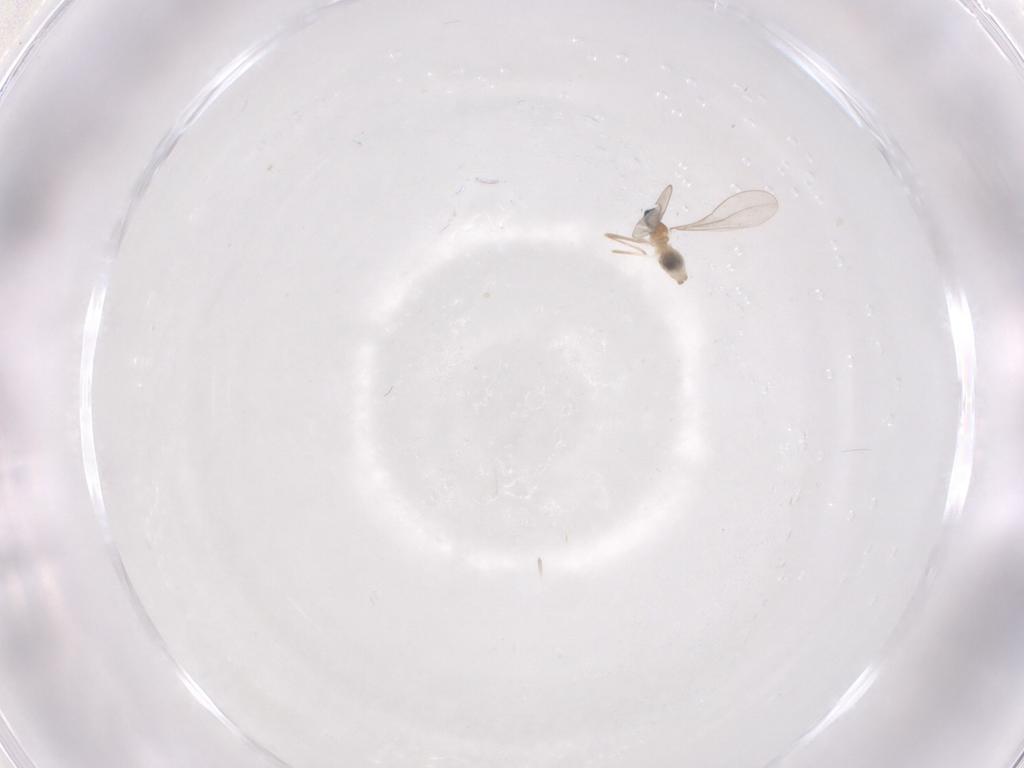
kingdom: Animalia
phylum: Arthropoda
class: Insecta
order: Diptera
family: Cecidomyiidae
